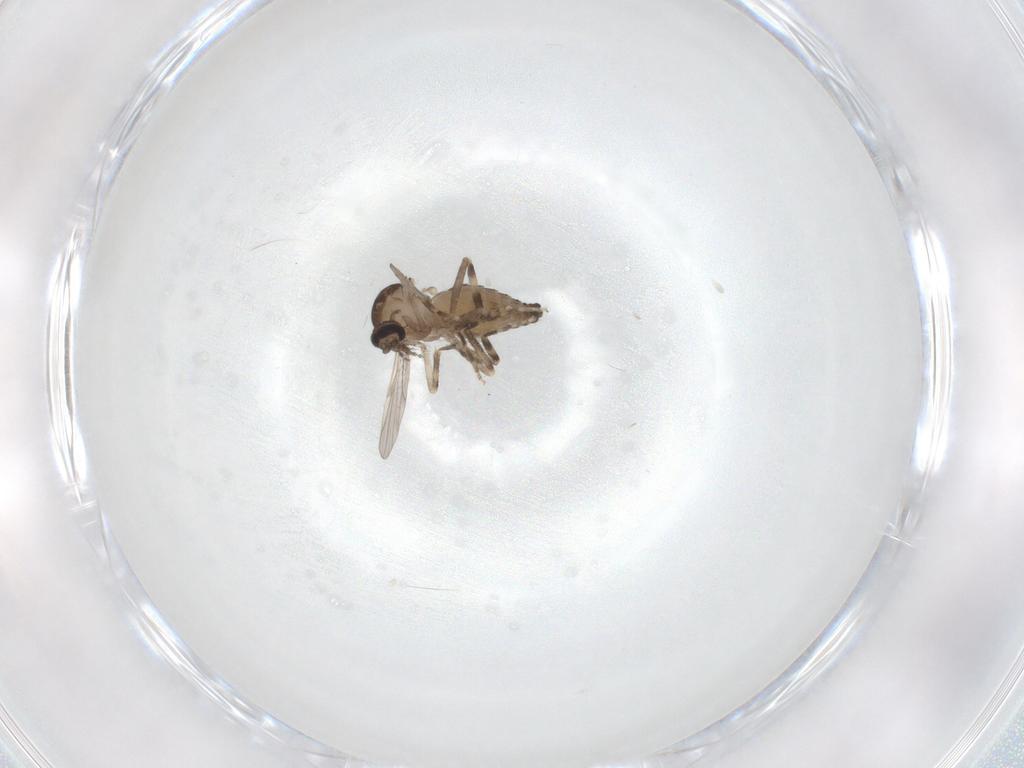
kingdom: Animalia
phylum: Arthropoda
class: Insecta
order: Diptera
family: Ceratopogonidae
